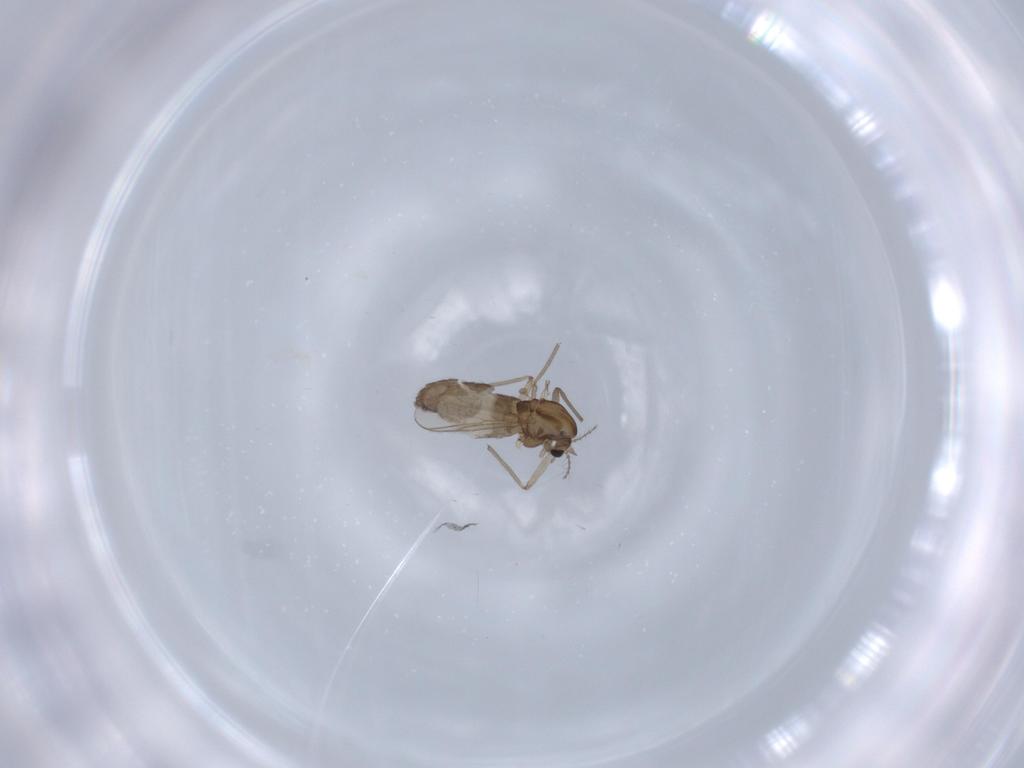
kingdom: Animalia
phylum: Arthropoda
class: Insecta
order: Diptera
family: Chironomidae
